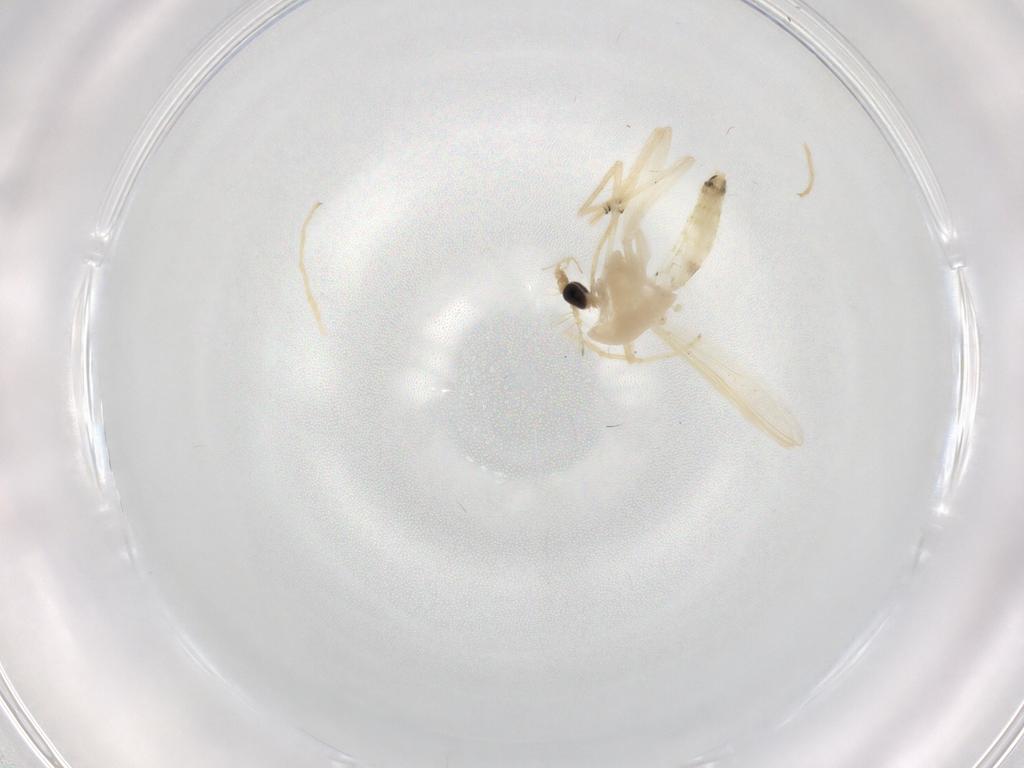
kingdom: Animalia
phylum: Arthropoda
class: Insecta
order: Diptera
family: Chironomidae
